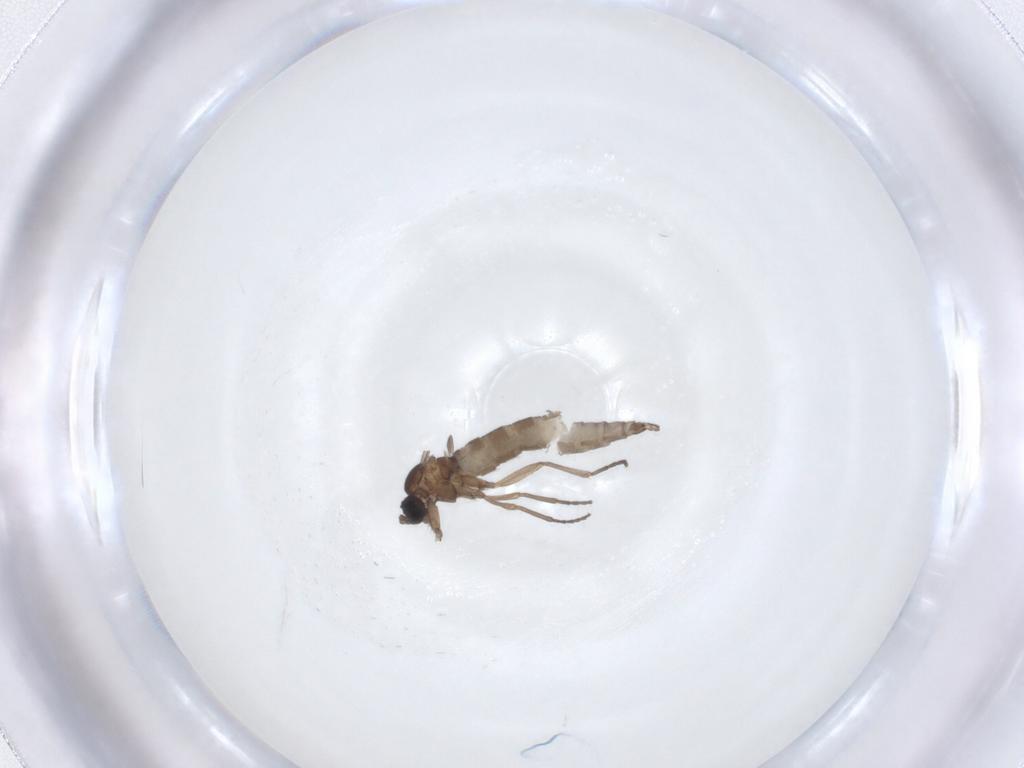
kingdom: Animalia
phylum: Arthropoda
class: Insecta
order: Diptera
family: Sciaridae
